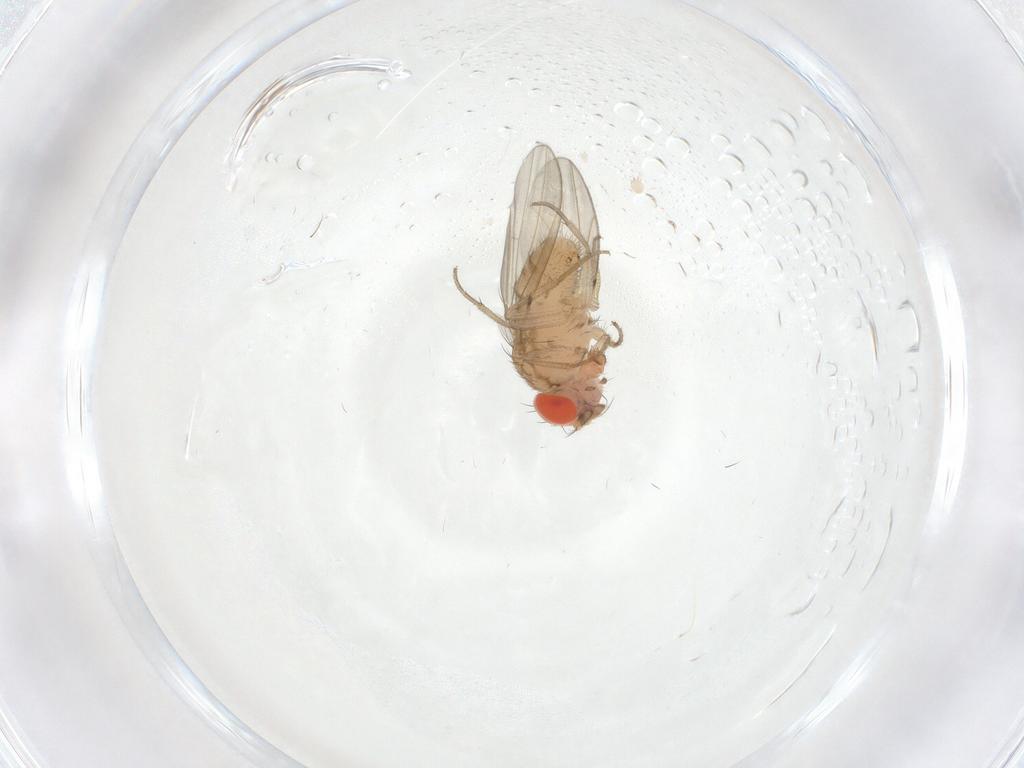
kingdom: Animalia
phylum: Arthropoda
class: Insecta
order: Diptera
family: Drosophilidae
